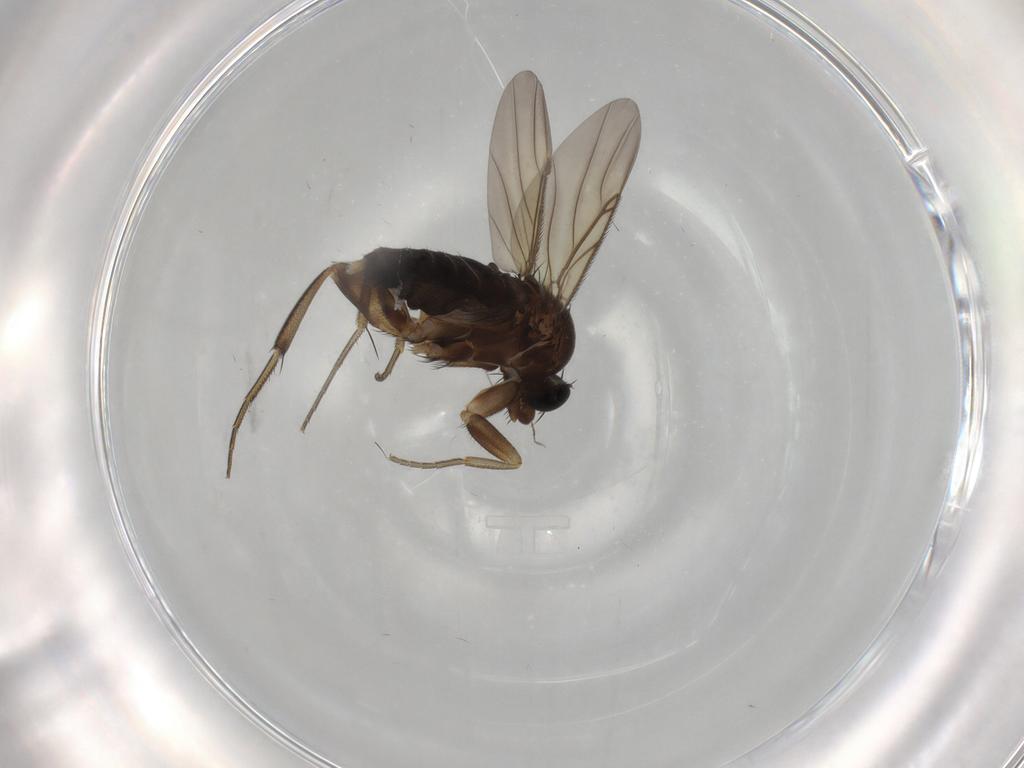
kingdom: Animalia
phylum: Arthropoda
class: Insecta
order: Diptera
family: Phoridae
